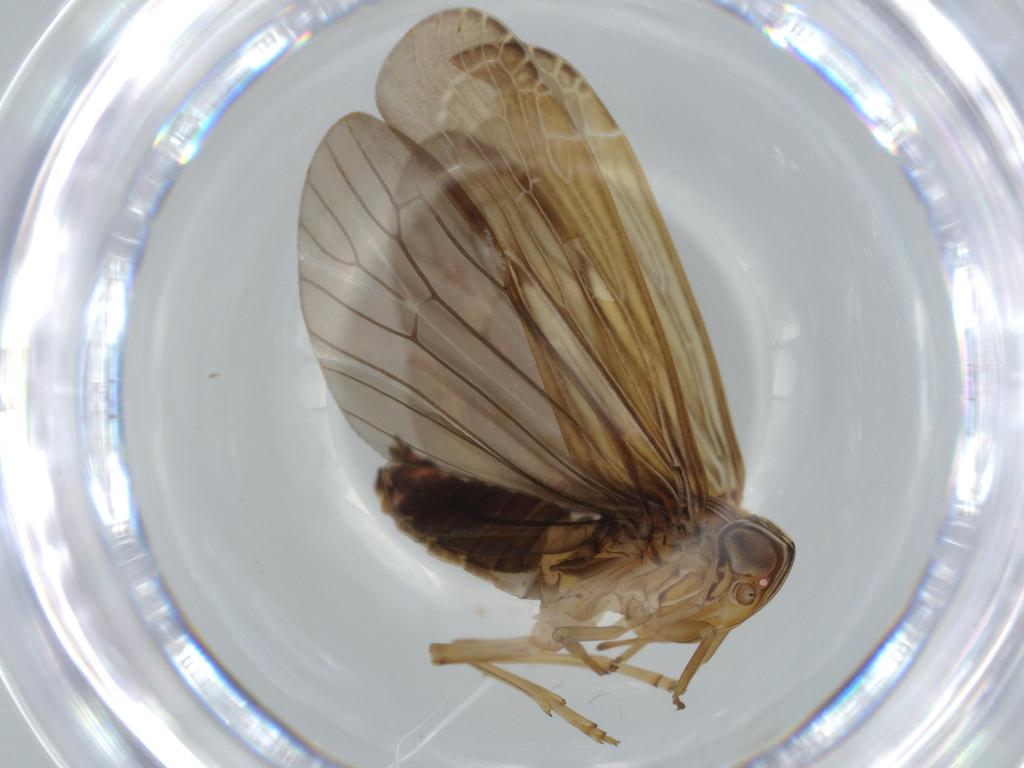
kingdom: Animalia
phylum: Arthropoda
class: Insecta
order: Hemiptera
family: Achilidae
